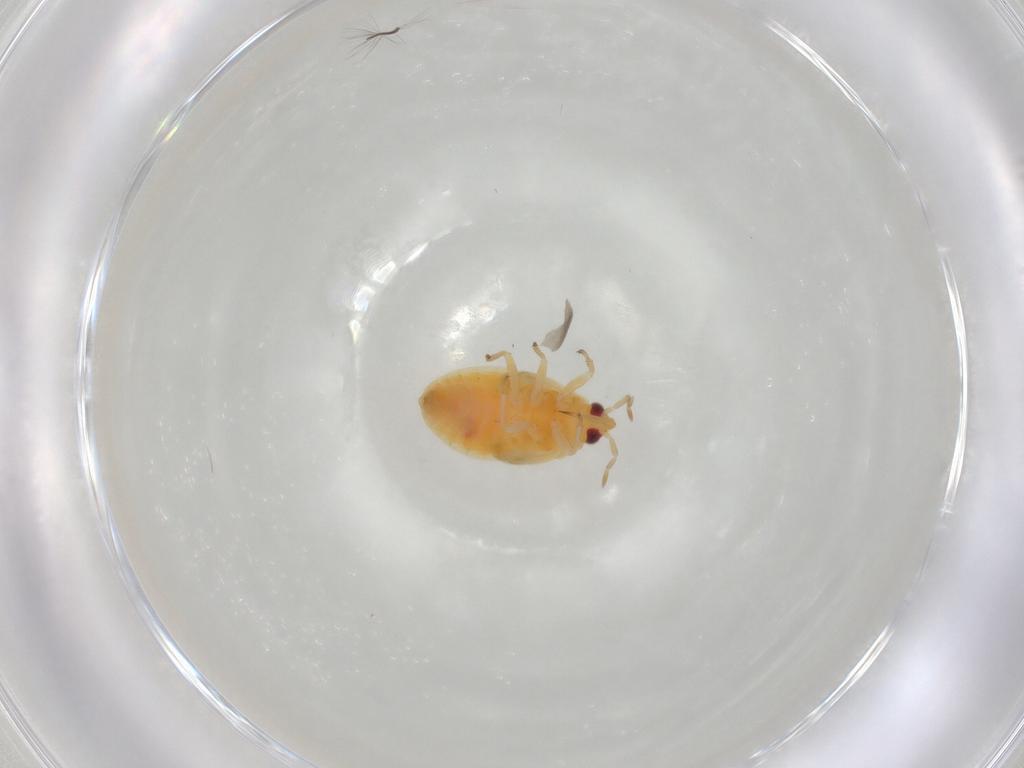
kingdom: Animalia
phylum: Arthropoda
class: Insecta
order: Hemiptera
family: Anthocoridae
